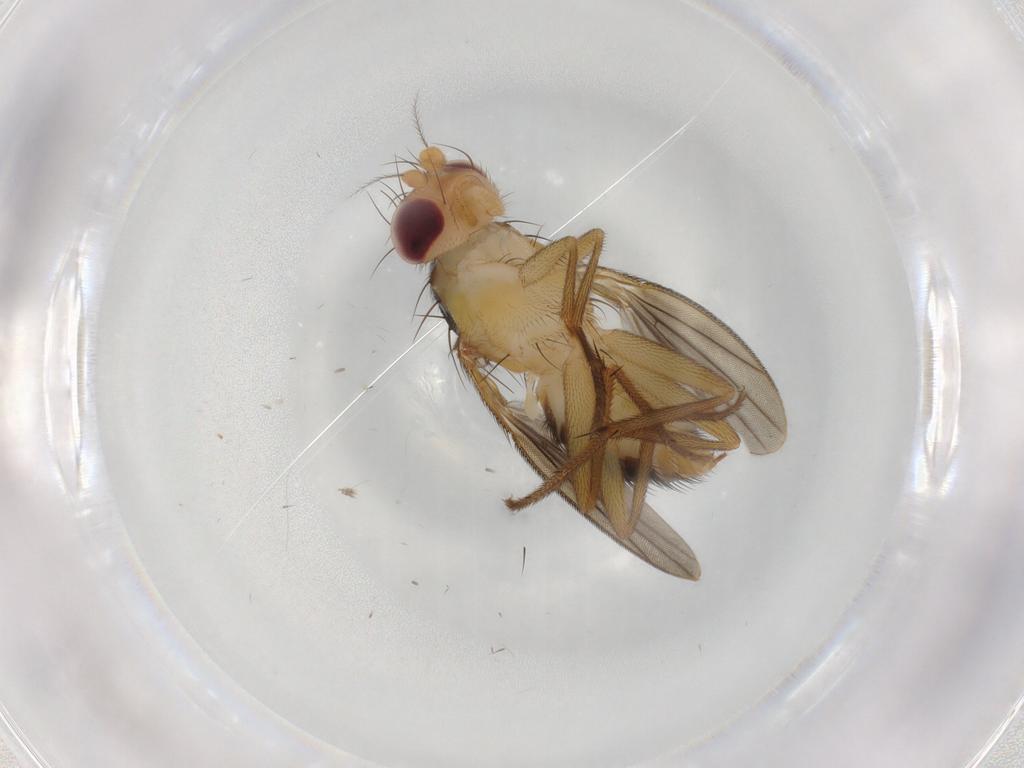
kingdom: Animalia
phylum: Arthropoda
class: Insecta
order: Diptera
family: Clusiidae
